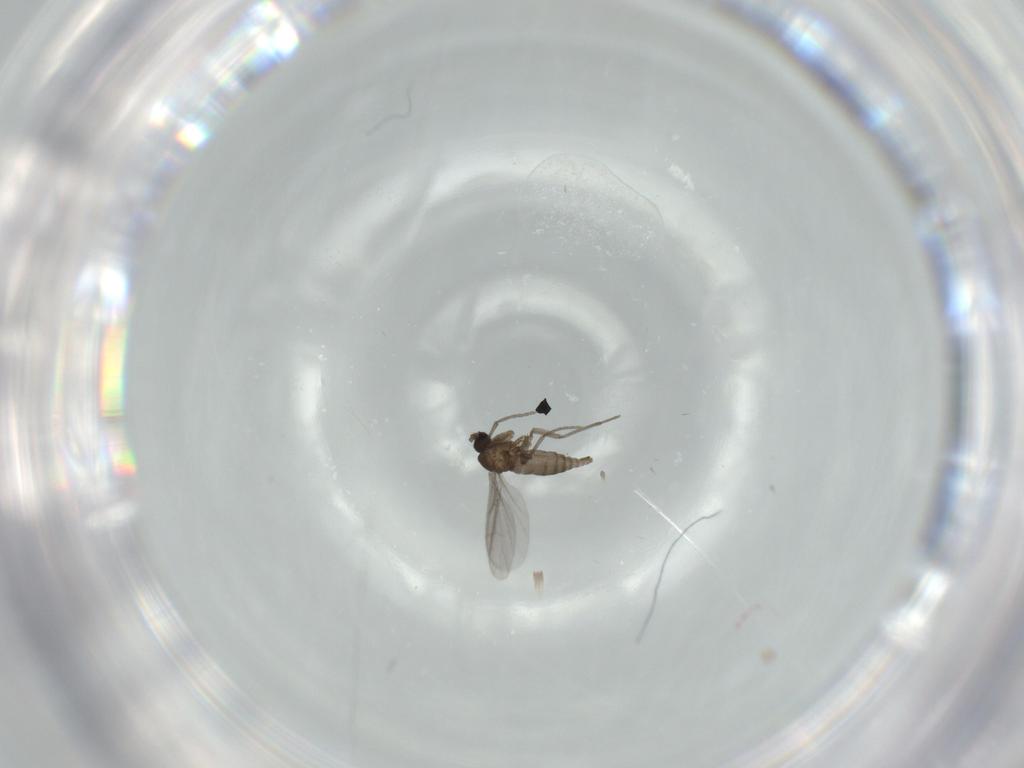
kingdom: Animalia
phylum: Arthropoda
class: Insecta
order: Diptera
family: Sciaridae
